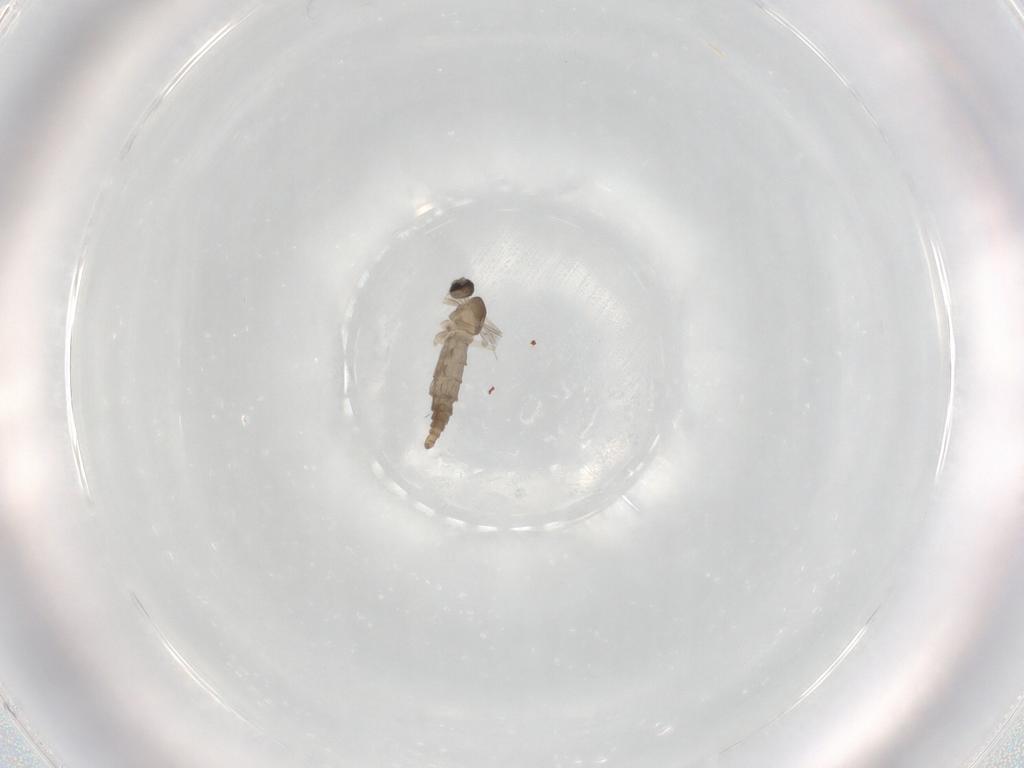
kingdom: Animalia
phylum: Arthropoda
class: Insecta
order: Diptera
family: Cecidomyiidae
